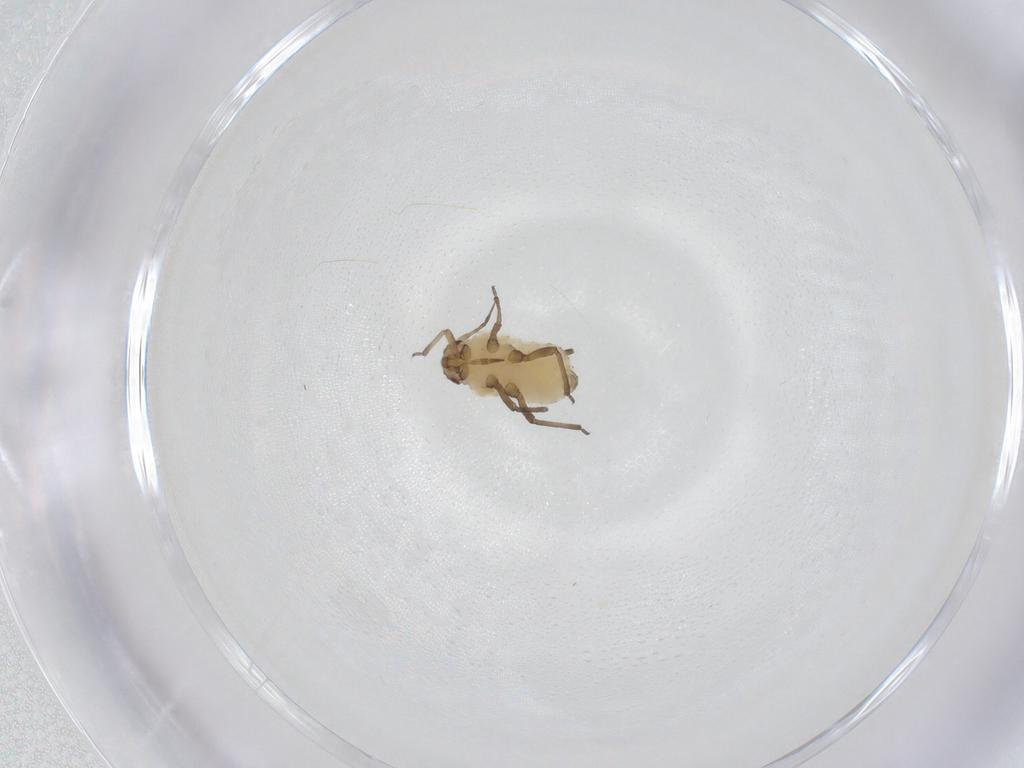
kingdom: Animalia
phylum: Arthropoda
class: Insecta
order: Hemiptera
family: Aphididae
